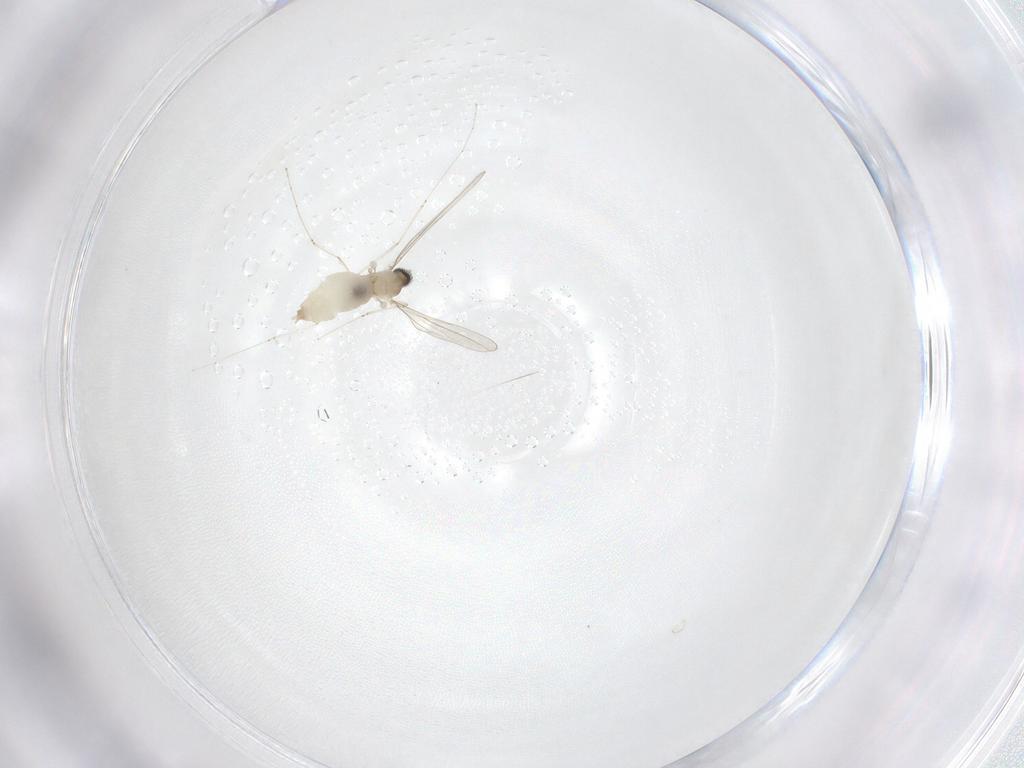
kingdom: Animalia
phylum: Arthropoda
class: Insecta
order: Diptera
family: Cecidomyiidae
